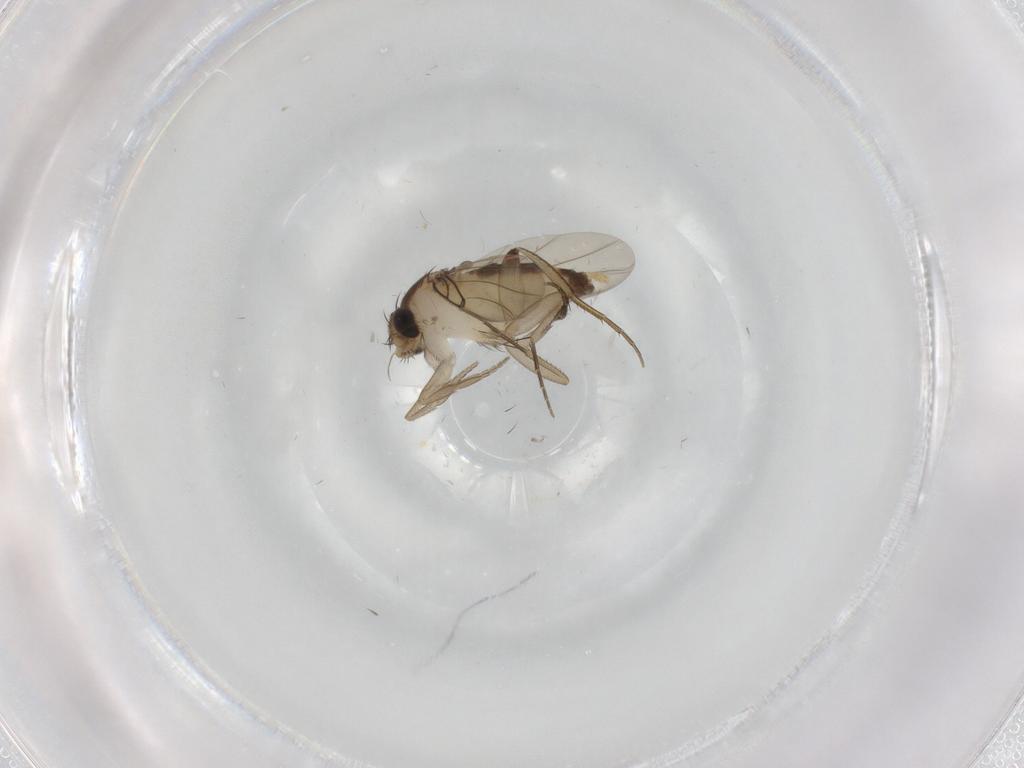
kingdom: Animalia
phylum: Arthropoda
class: Insecta
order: Diptera
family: Phoridae
